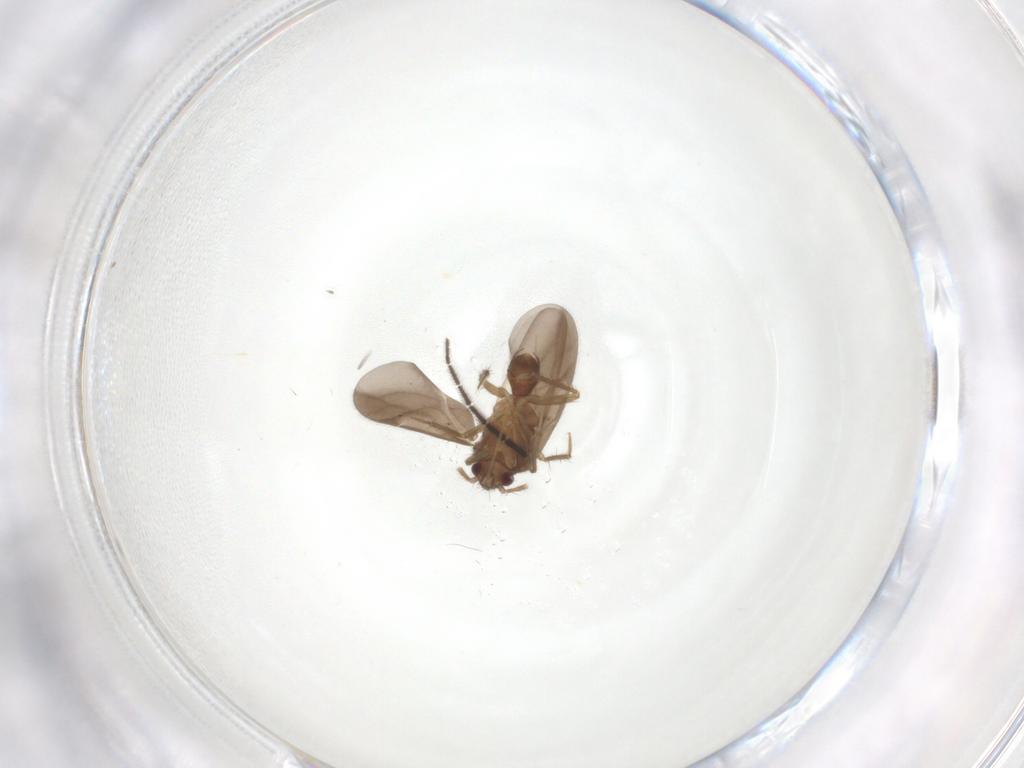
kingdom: Animalia
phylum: Arthropoda
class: Insecta
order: Hemiptera
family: Ceratocombidae
